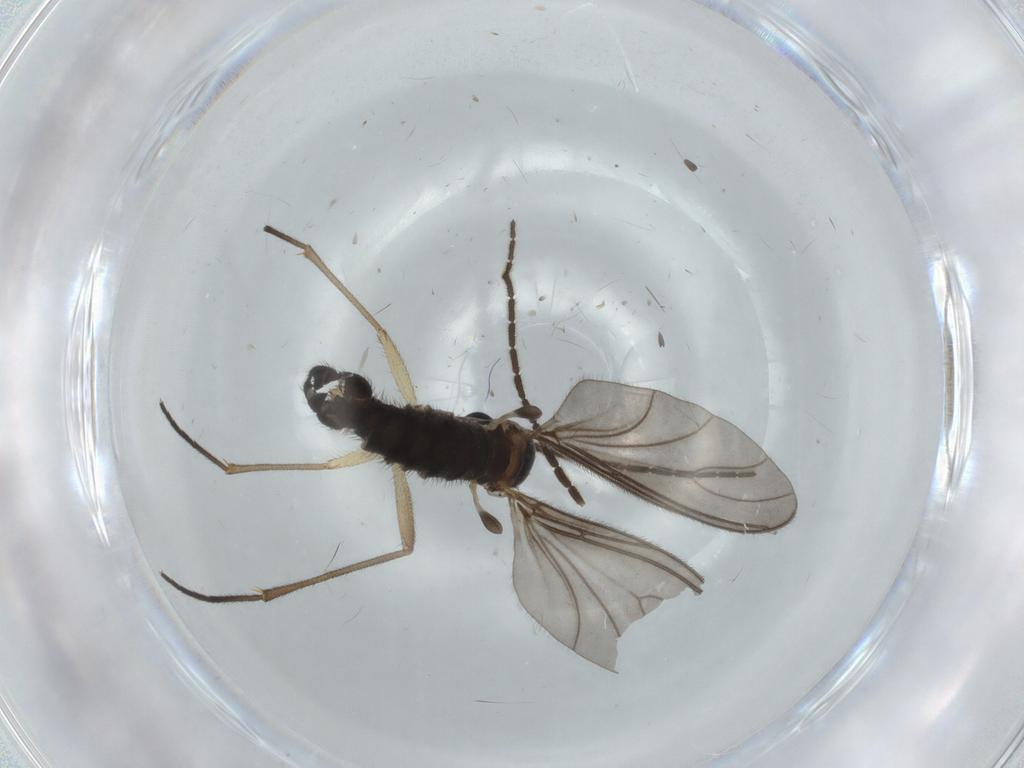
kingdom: Animalia
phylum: Arthropoda
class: Insecta
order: Diptera
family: Sciaridae
